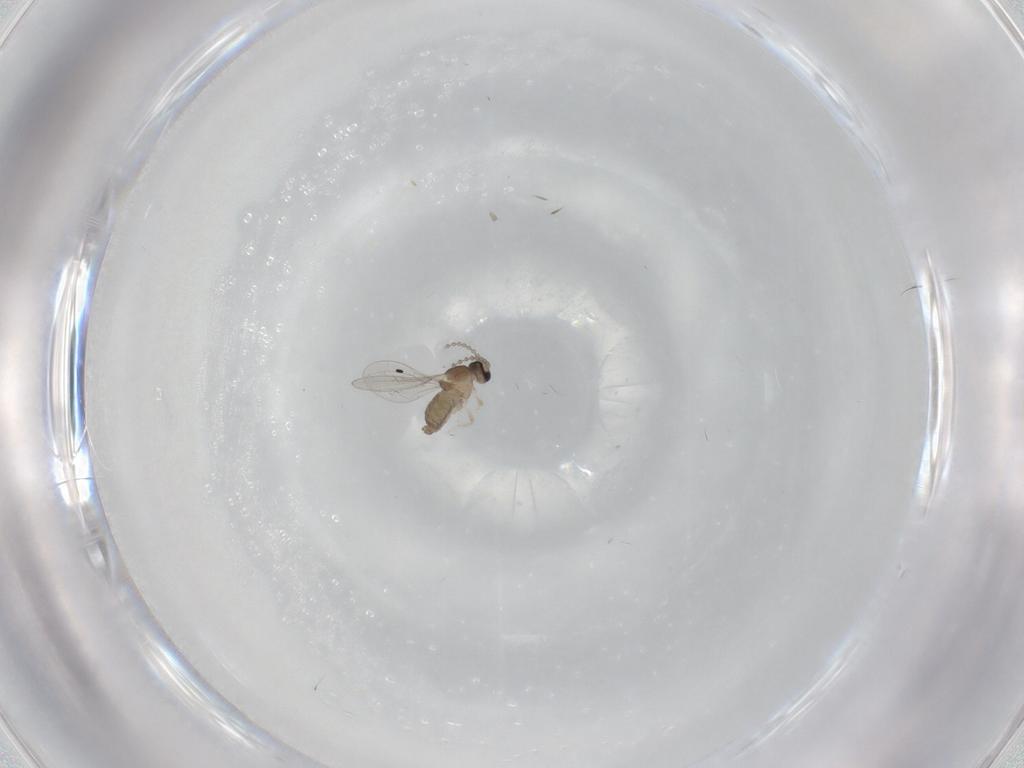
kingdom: Animalia
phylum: Arthropoda
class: Insecta
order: Diptera
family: Cecidomyiidae
